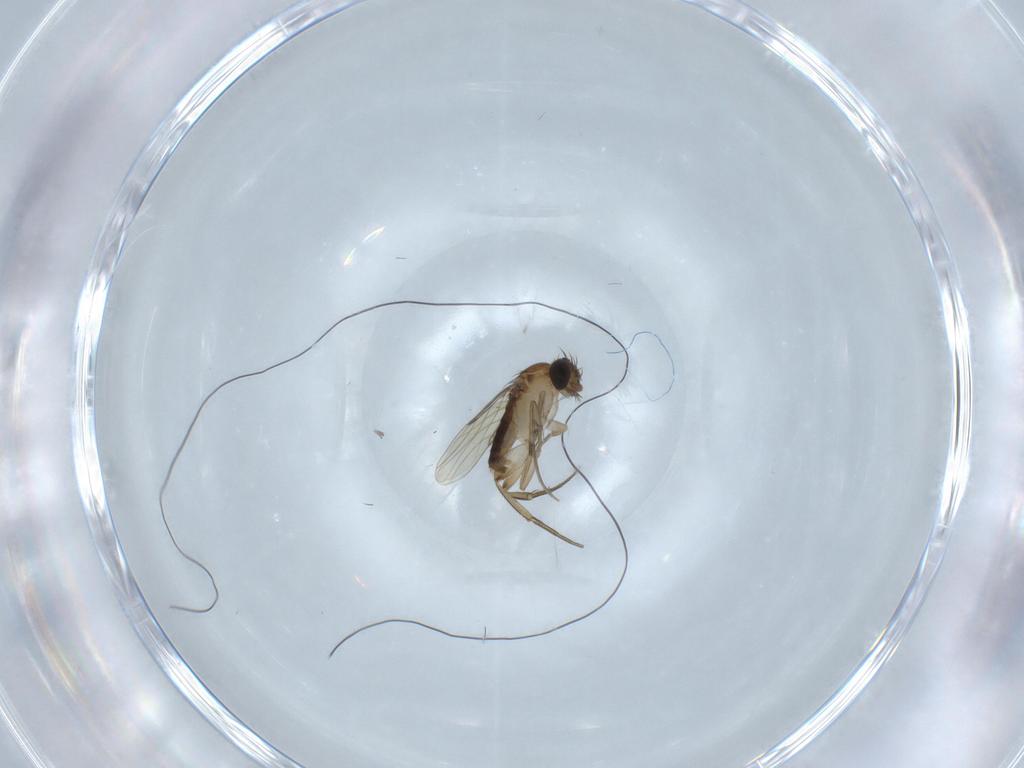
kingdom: Animalia
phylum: Arthropoda
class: Insecta
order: Diptera
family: Phoridae
